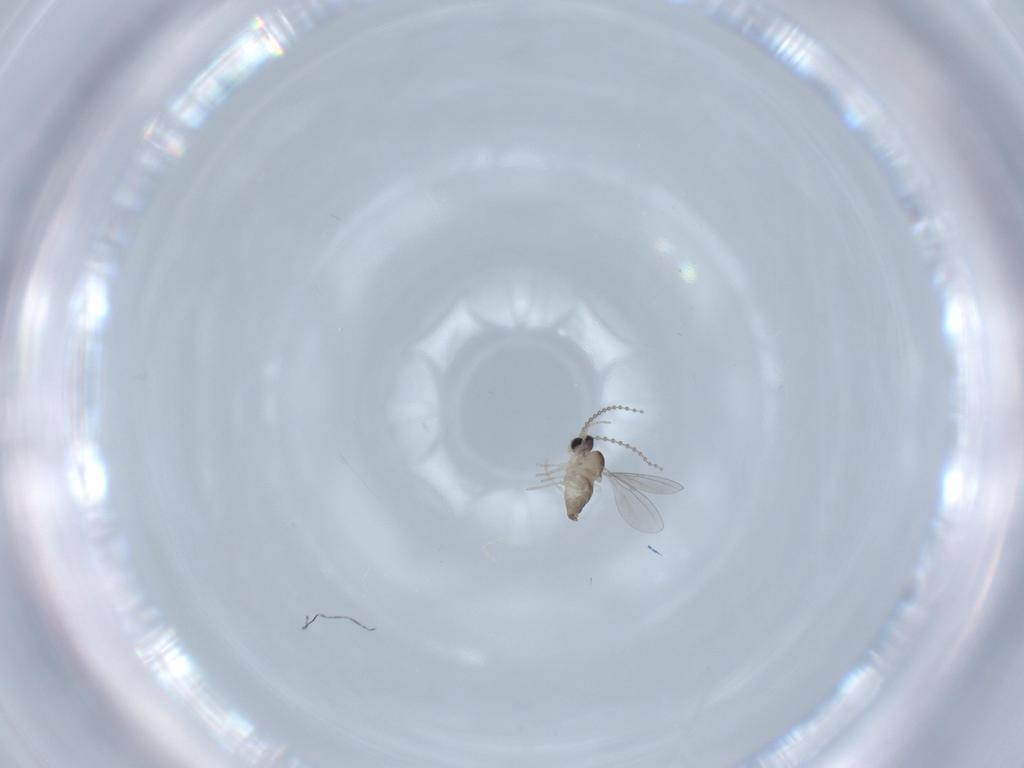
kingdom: Animalia
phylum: Arthropoda
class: Insecta
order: Diptera
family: Cecidomyiidae
